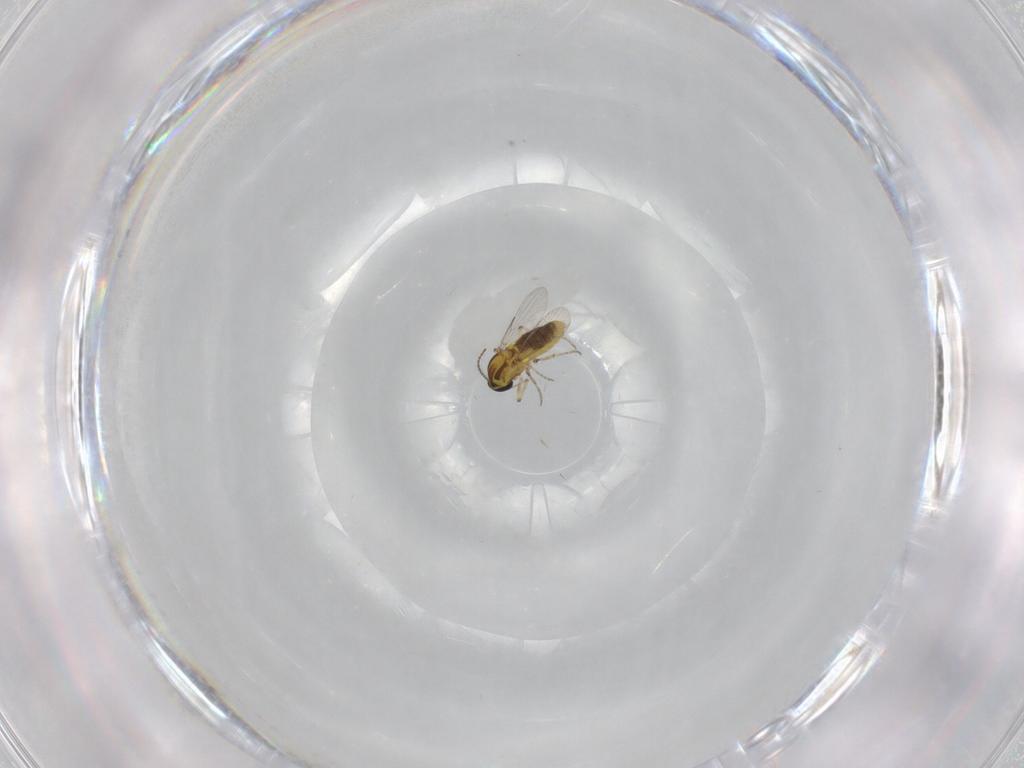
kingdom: Animalia
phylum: Arthropoda
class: Insecta
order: Diptera
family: Ceratopogonidae
